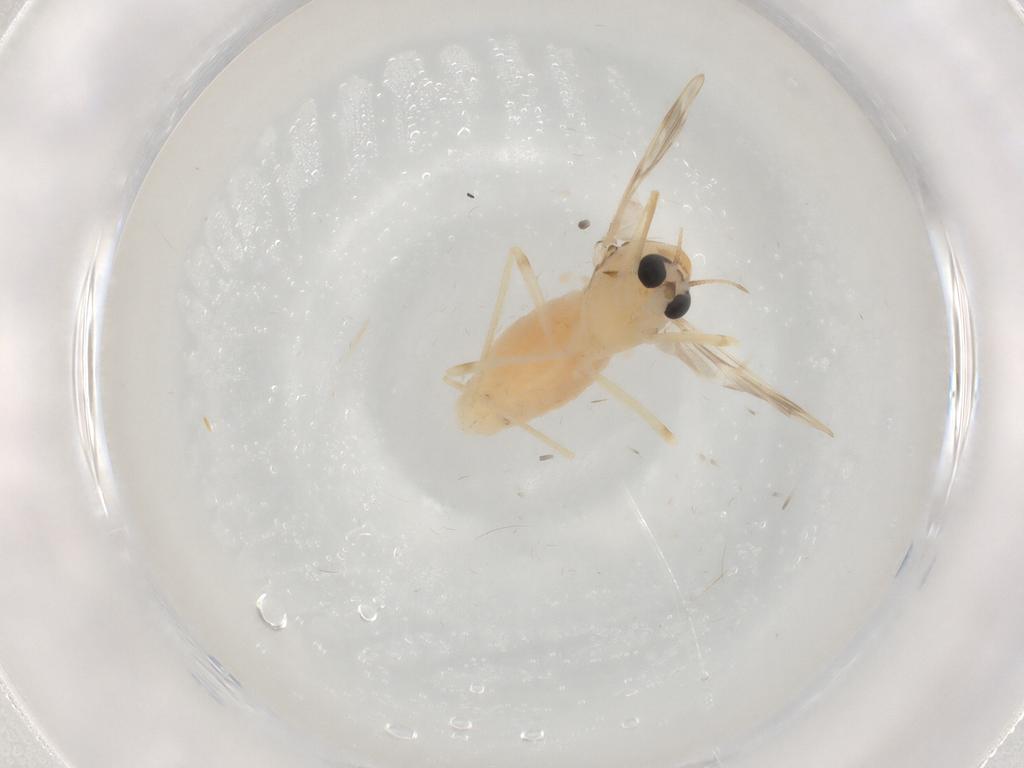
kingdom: Animalia
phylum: Arthropoda
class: Insecta
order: Diptera
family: Chironomidae
